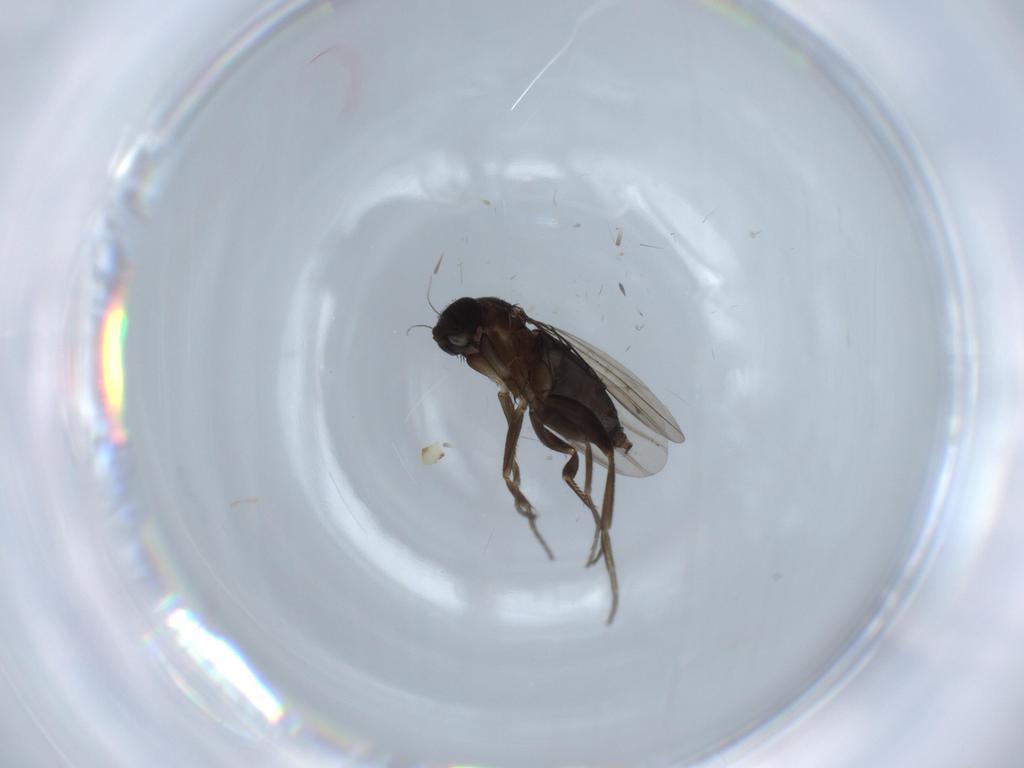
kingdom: Animalia
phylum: Arthropoda
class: Insecta
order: Diptera
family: Phoridae
